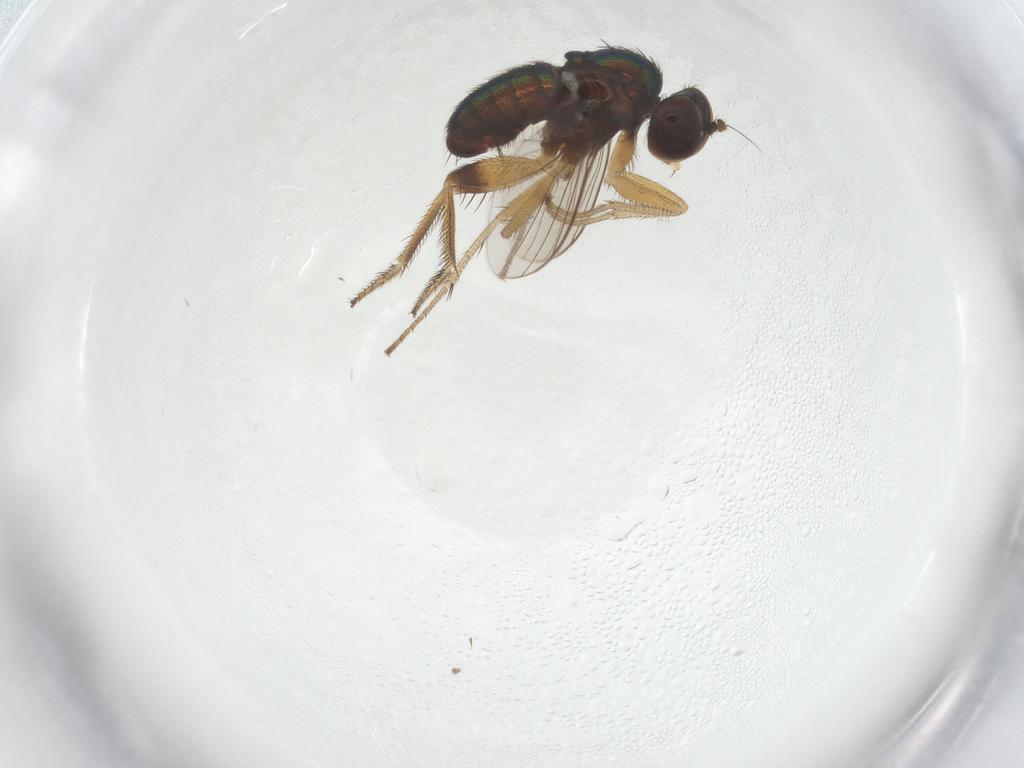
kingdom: Animalia
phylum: Arthropoda
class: Insecta
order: Diptera
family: Dolichopodidae
